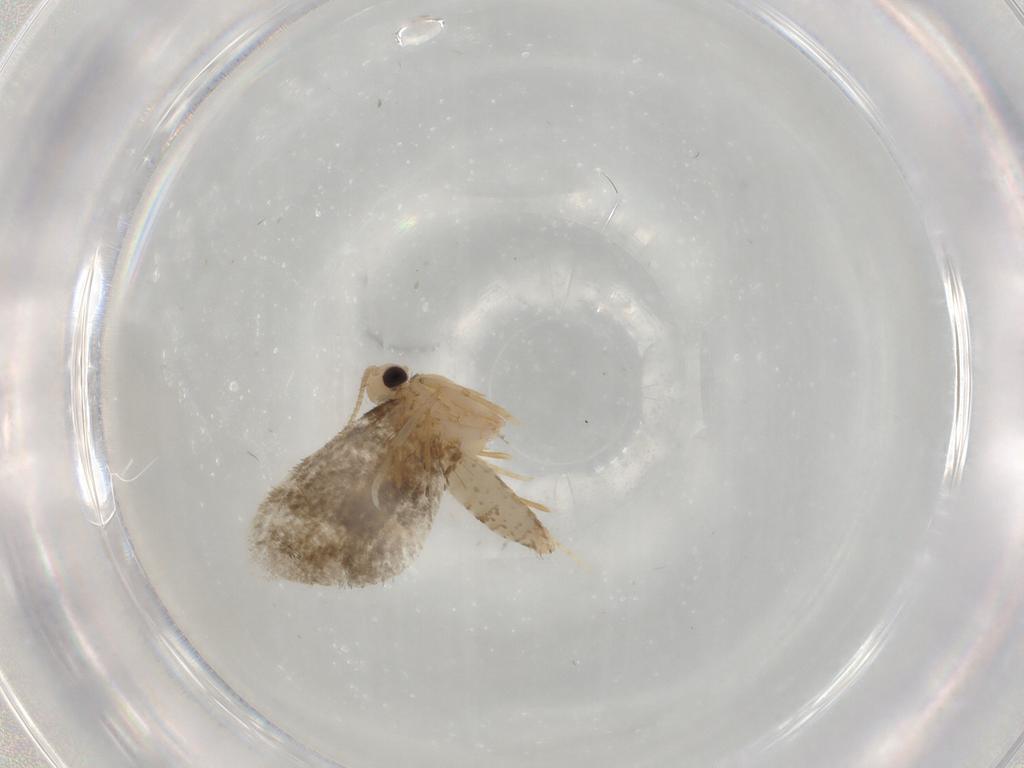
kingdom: Animalia
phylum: Arthropoda
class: Insecta
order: Lepidoptera
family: Psychidae
